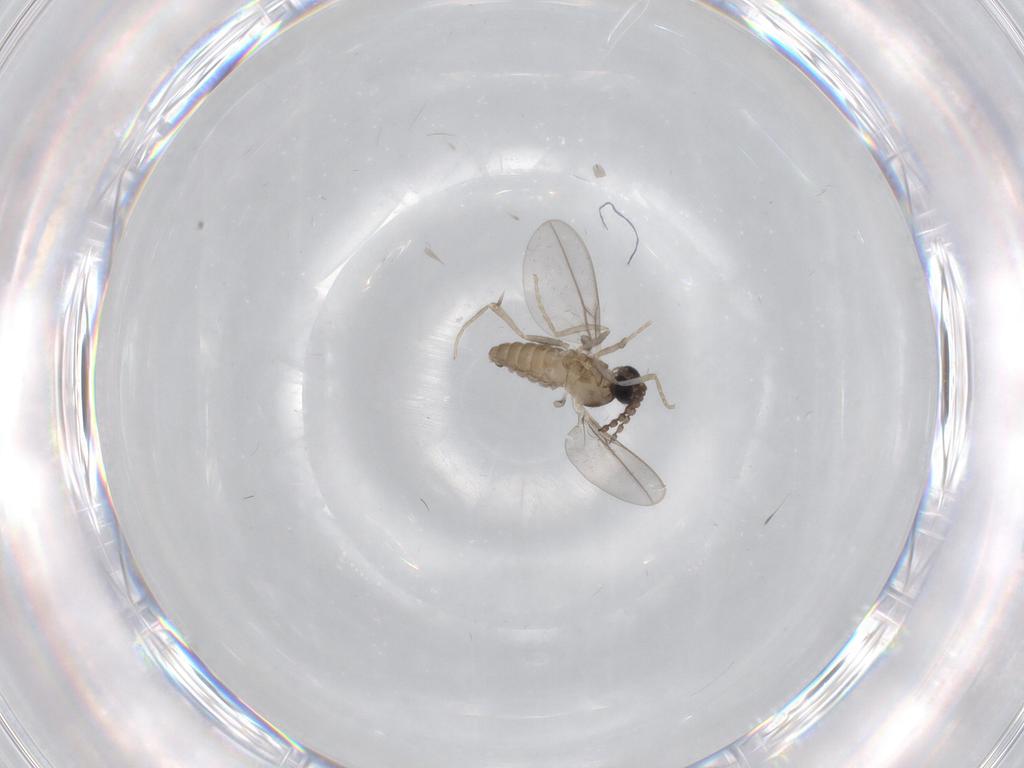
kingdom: Animalia
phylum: Arthropoda
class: Insecta
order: Diptera
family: Cecidomyiidae
